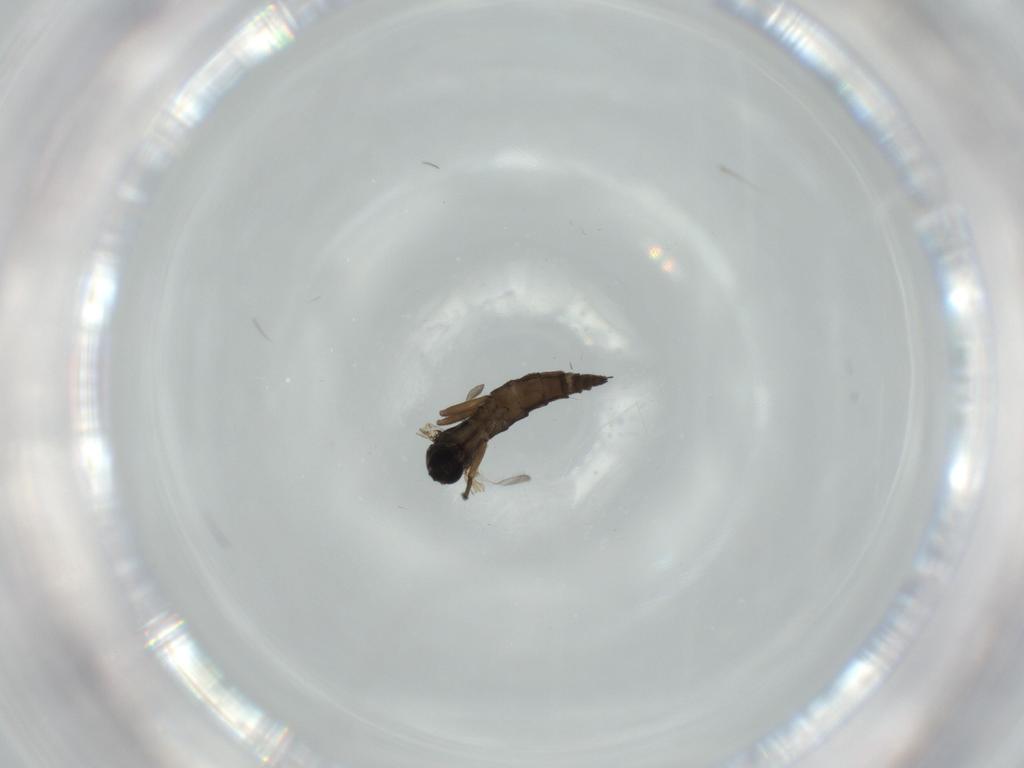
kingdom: Animalia
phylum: Arthropoda
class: Insecta
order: Diptera
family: Sciaridae
